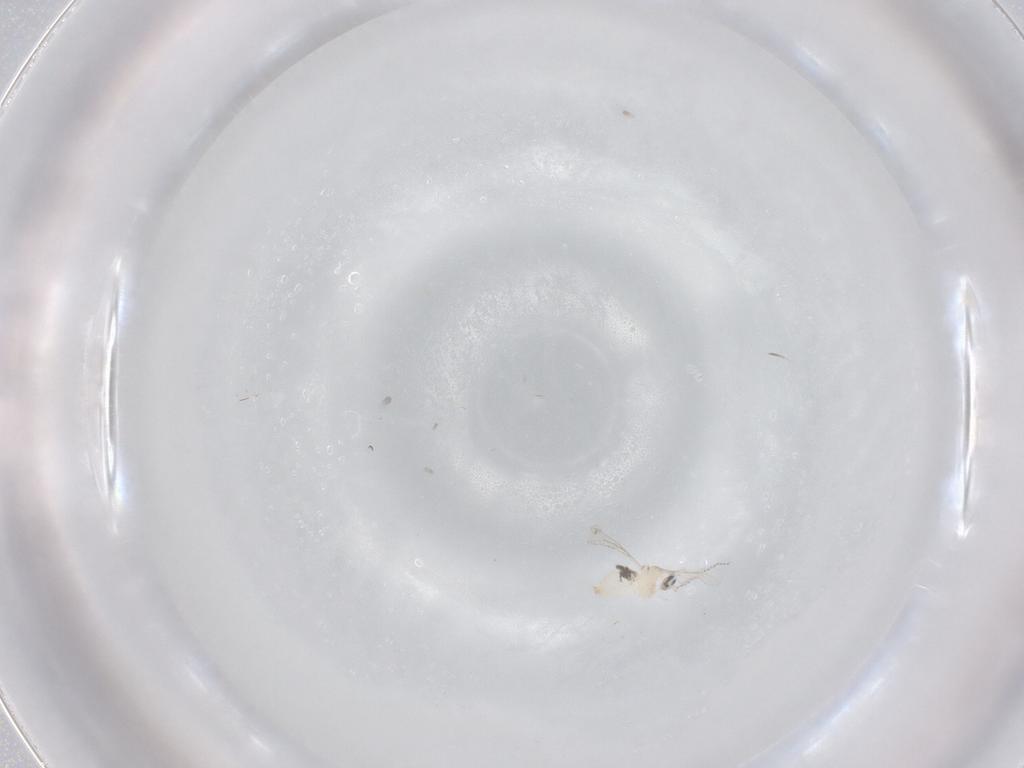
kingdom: Animalia
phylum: Arthropoda
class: Insecta
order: Diptera
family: Cecidomyiidae
